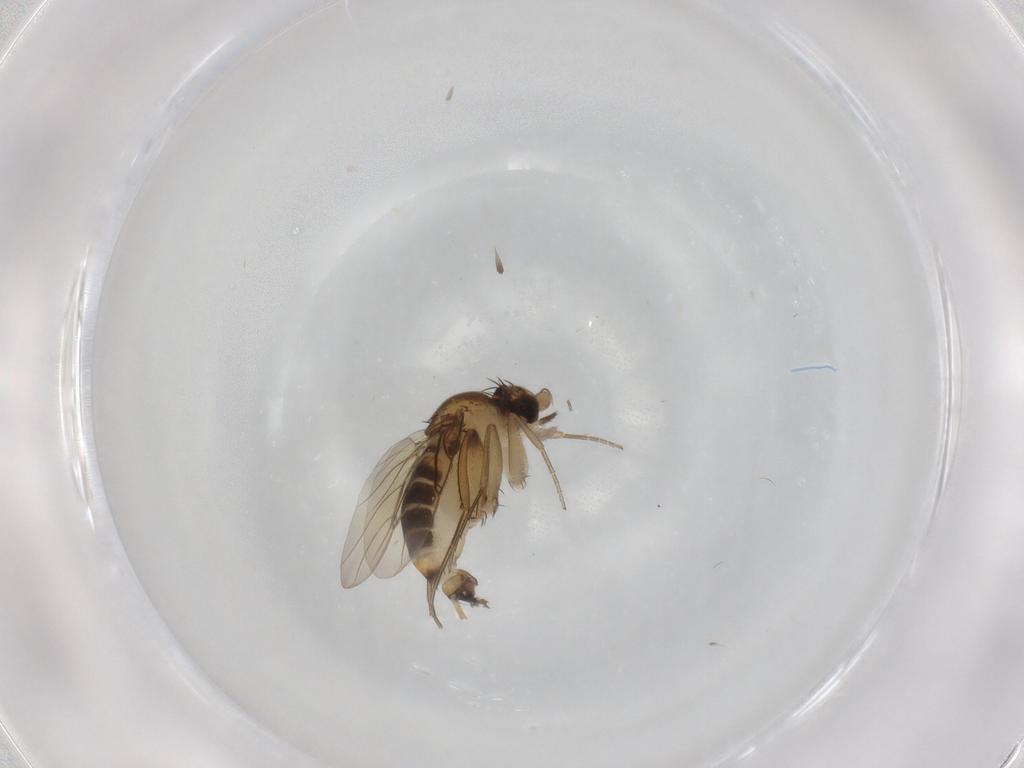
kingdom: Animalia
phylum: Arthropoda
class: Insecta
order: Diptera
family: Phoridae
